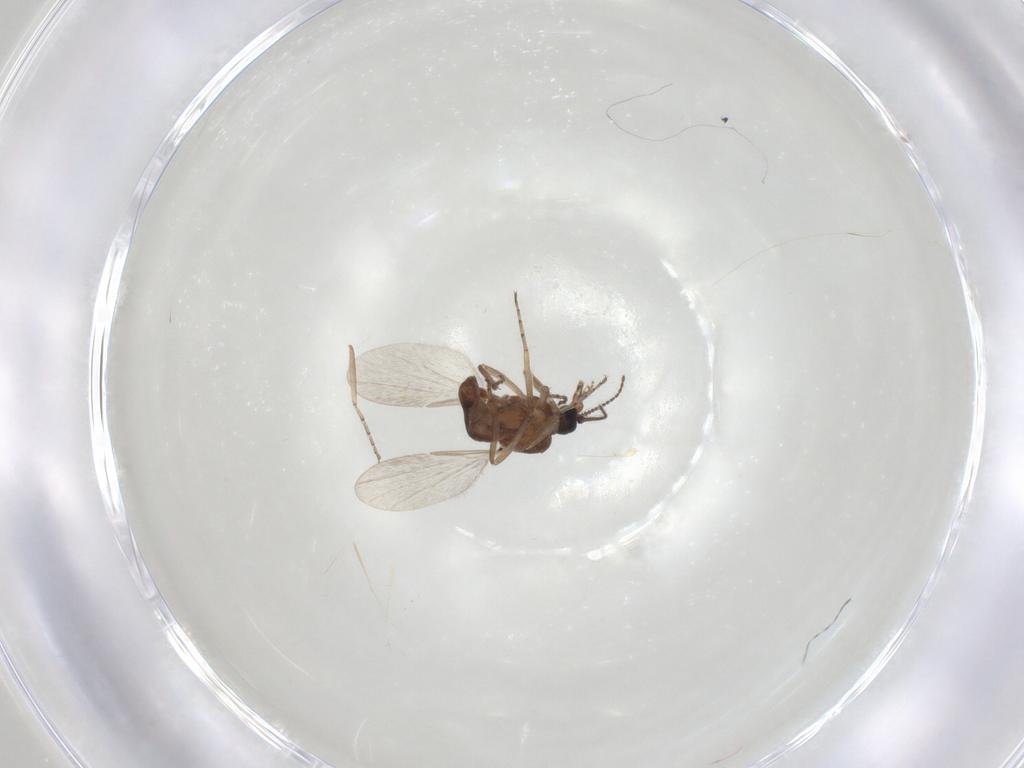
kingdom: Animalia
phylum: Arthropoda
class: Insecta
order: Diptera
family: Ceratopogonidae
